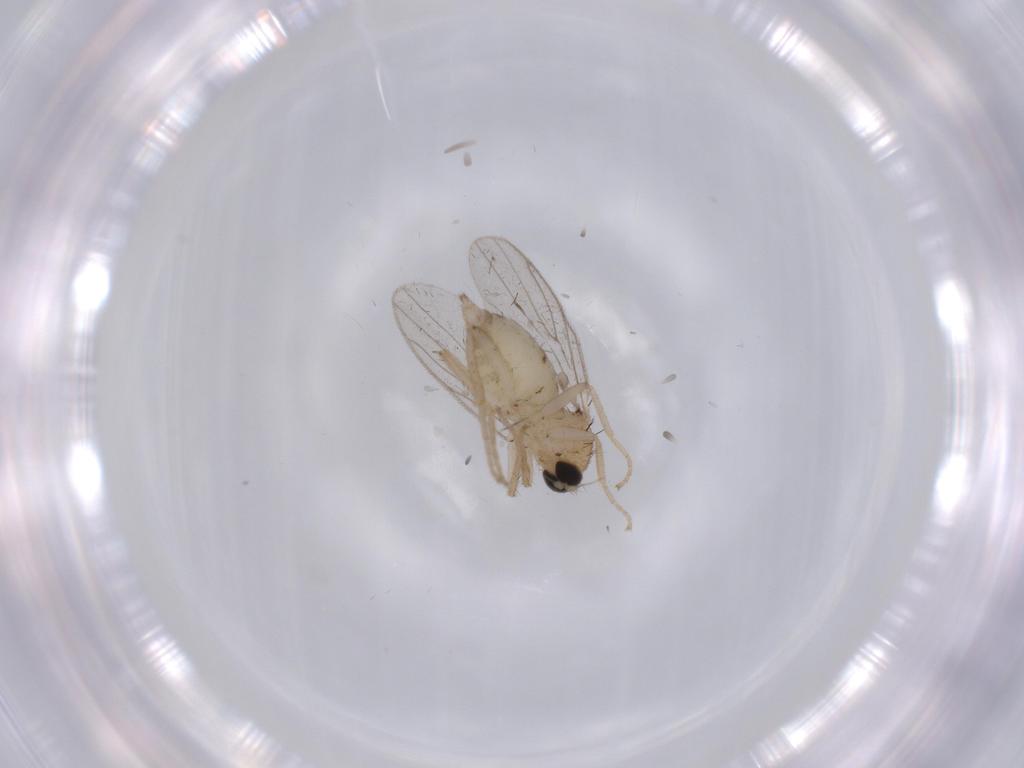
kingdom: Animalia
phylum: Arthropoda
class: Insecta
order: Diptera
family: Hybotidae
